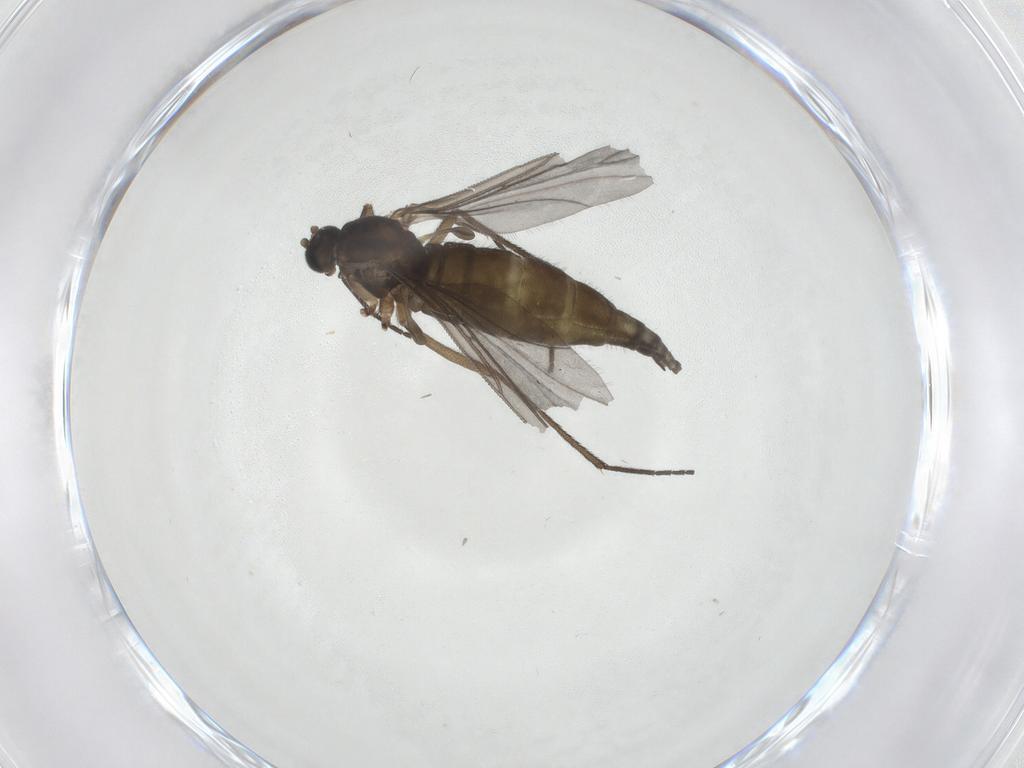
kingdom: Animalia
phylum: Arthropoda
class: Insecta
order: Diptera
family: Sciaridae
